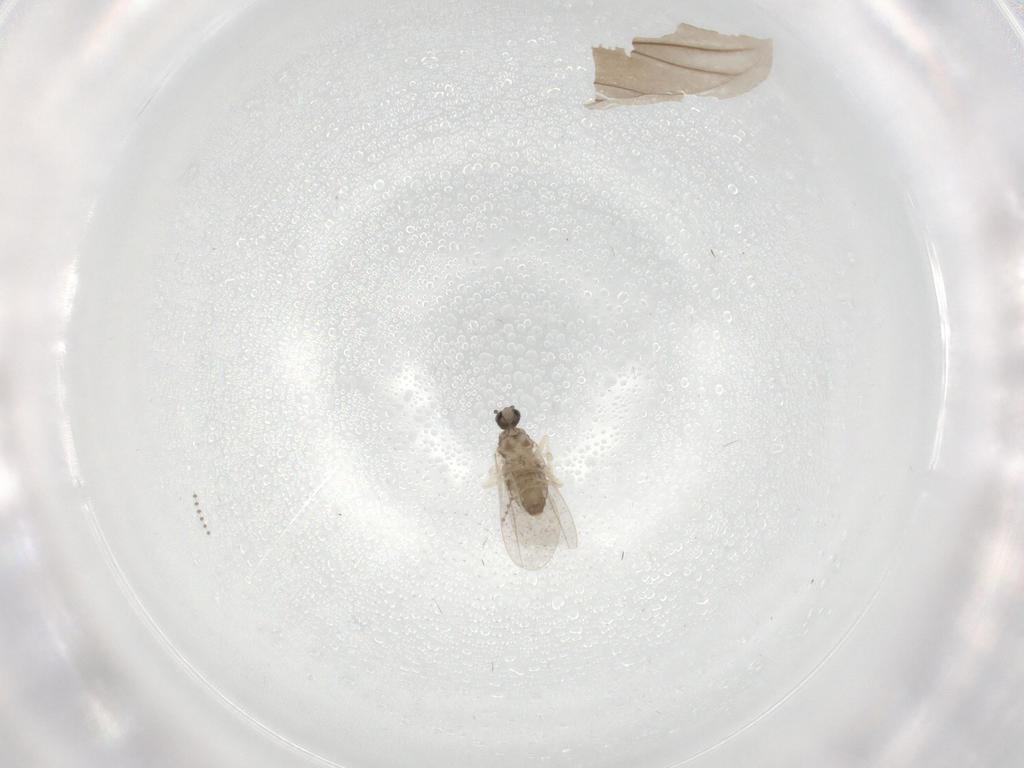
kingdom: Animalia
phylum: Arthropoda
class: Insecta
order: Diptera
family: Cecidomyiidae
